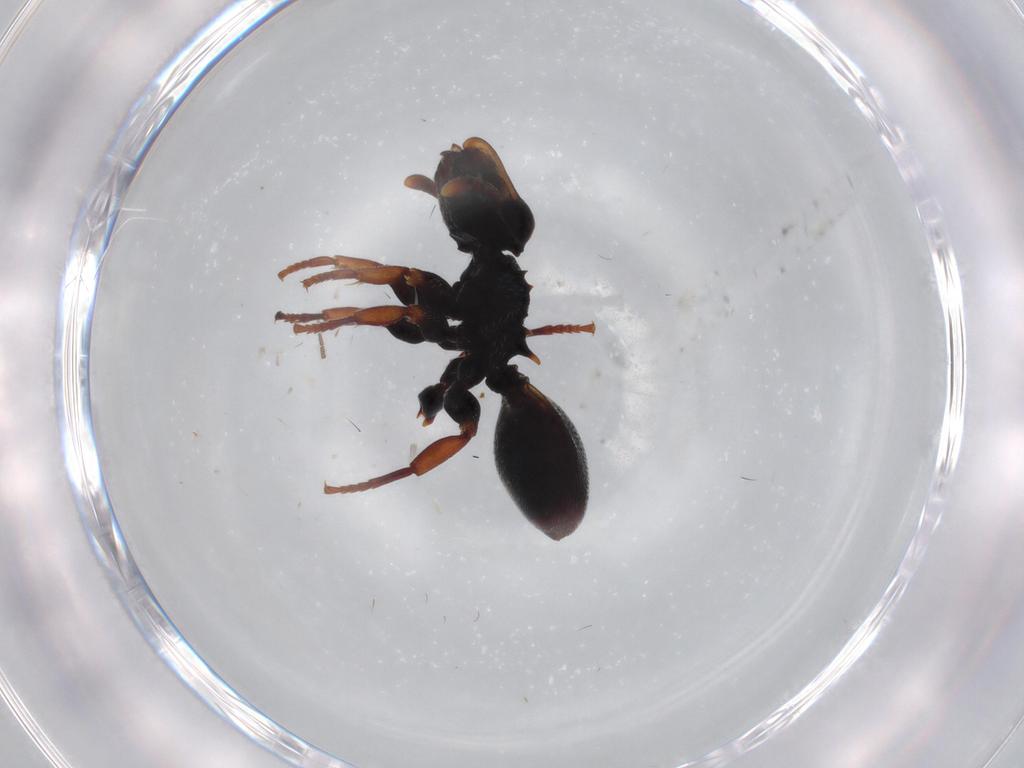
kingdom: Animalia
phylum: Arthropoda
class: Insecta
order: Hymenoptera
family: Formicidae
